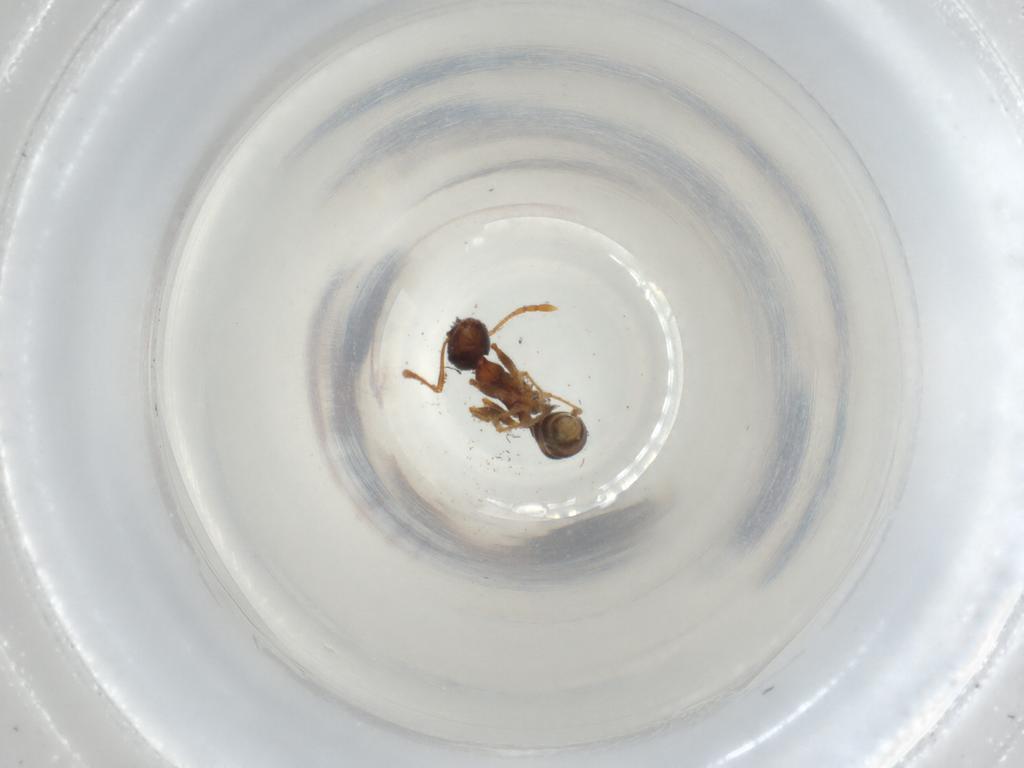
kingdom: Animalia
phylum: Arthropoda
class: Insecta
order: Hymenoptera
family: Formicidae
